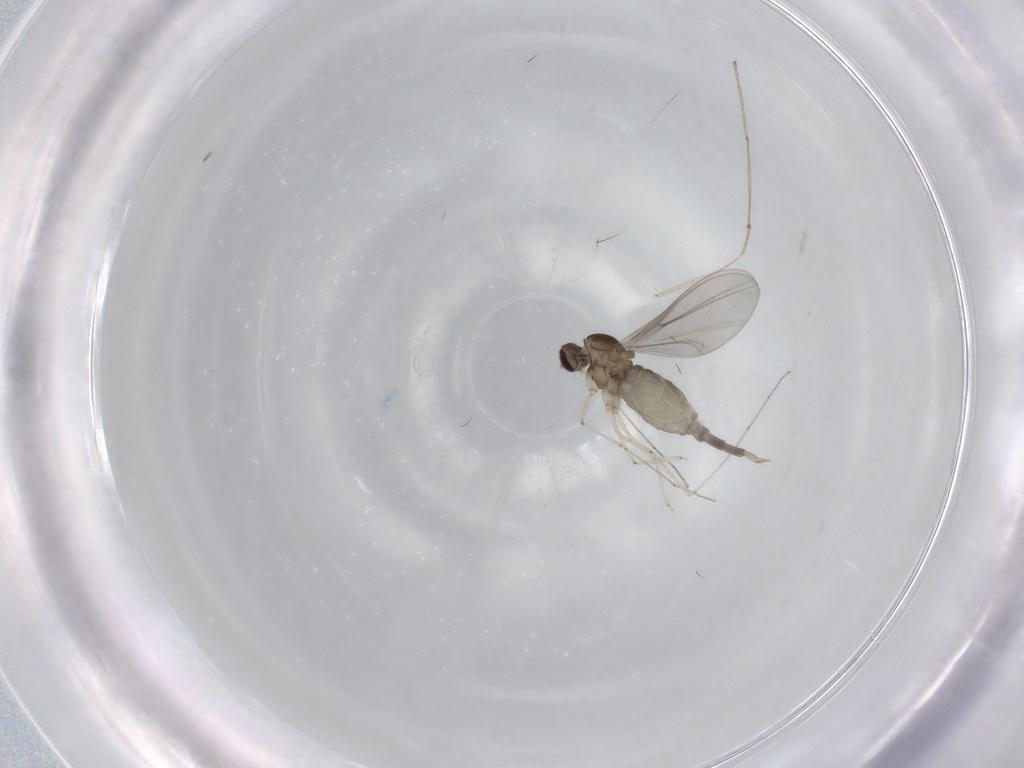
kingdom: Animalia
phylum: Arthropoda
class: Insecta
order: Diptera
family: Cecidomyiidae
